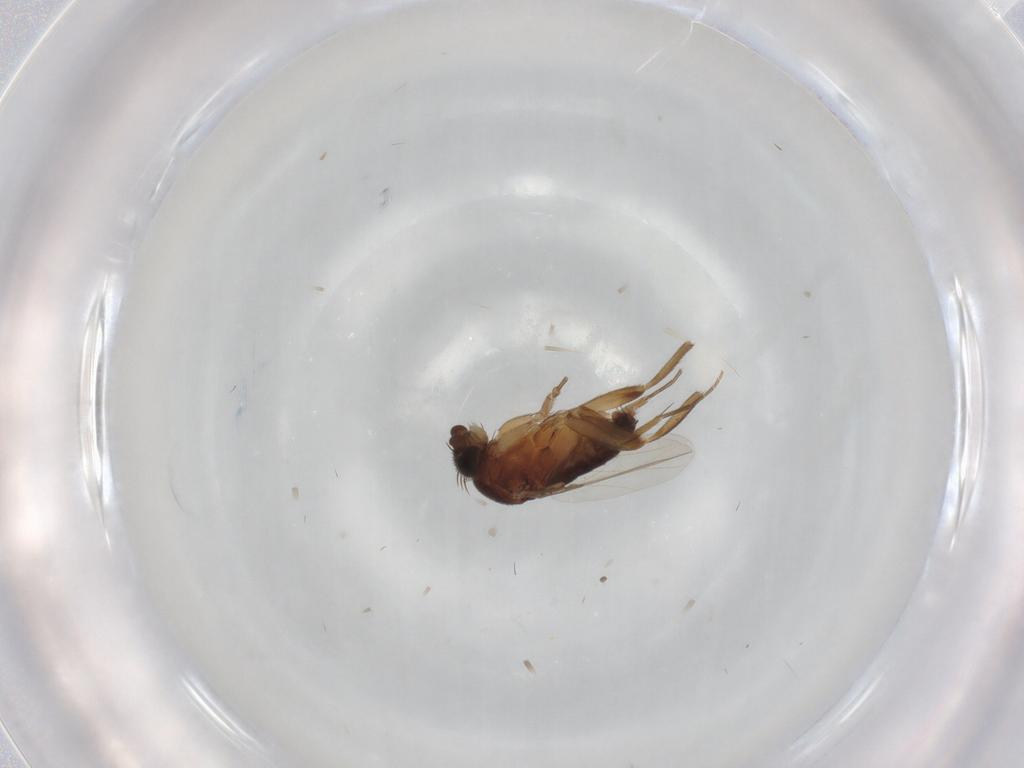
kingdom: Animalia
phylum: Arthropoda
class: Insecta
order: Diptera
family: Phoridae
